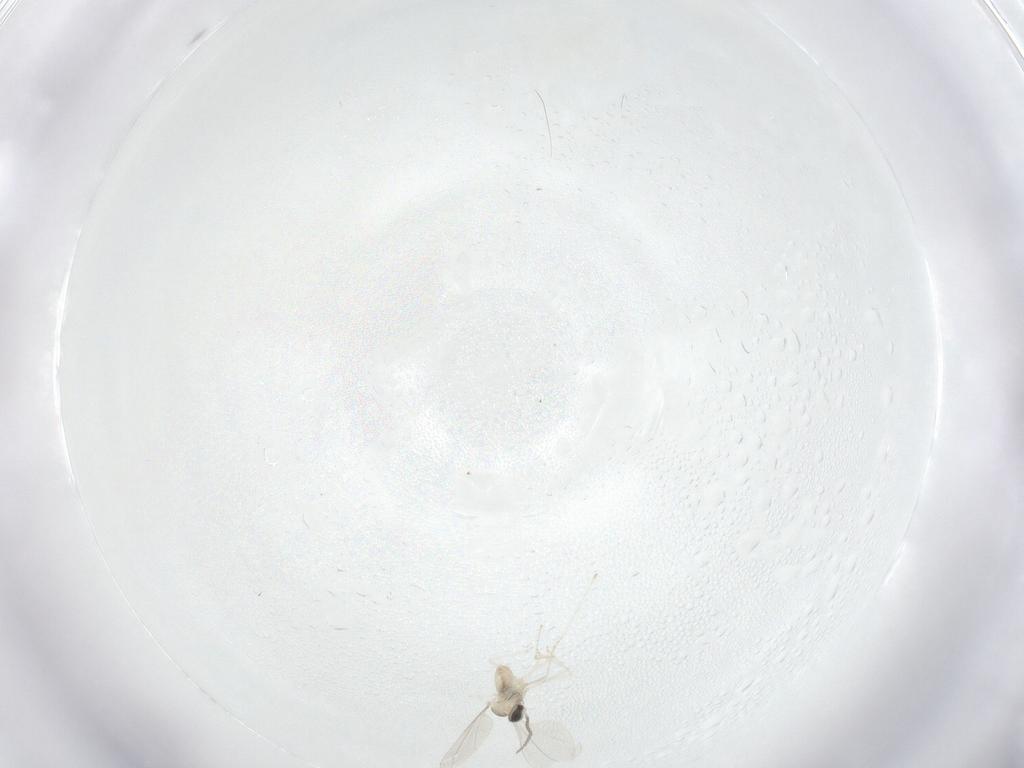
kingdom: Animalia
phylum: Arthropoda
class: Insecta
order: Diptera
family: Cecidomyiidae
